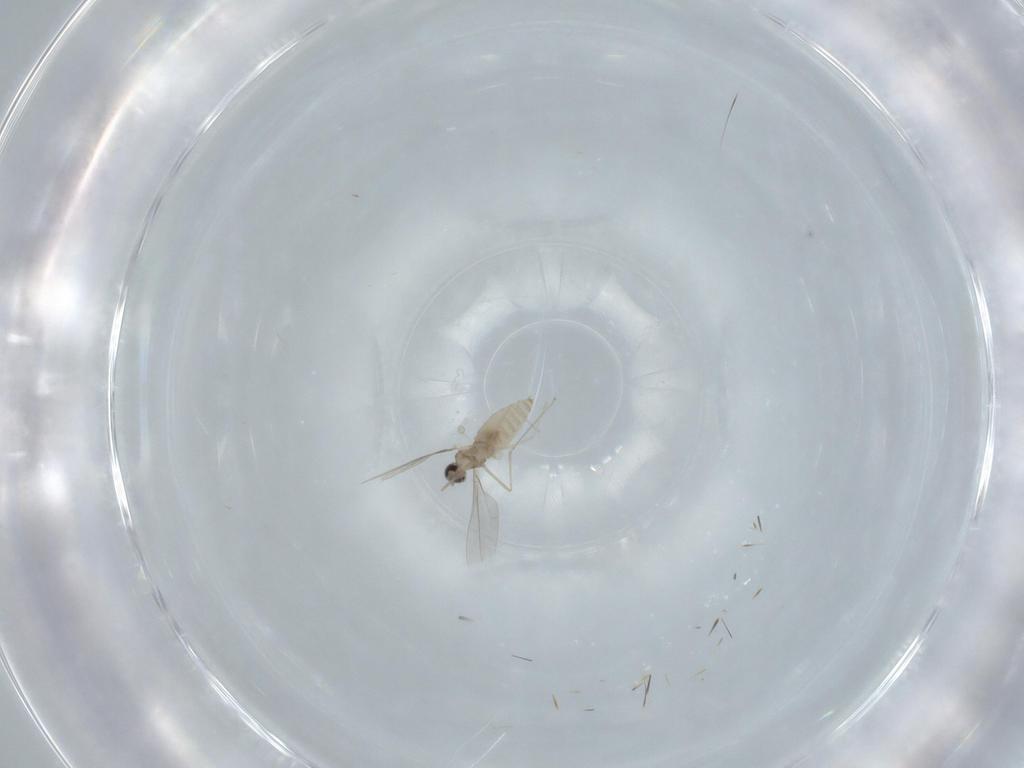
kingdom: Animalia
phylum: Arthropoda
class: Insecta
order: Diptera
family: Cecidomyiidae
